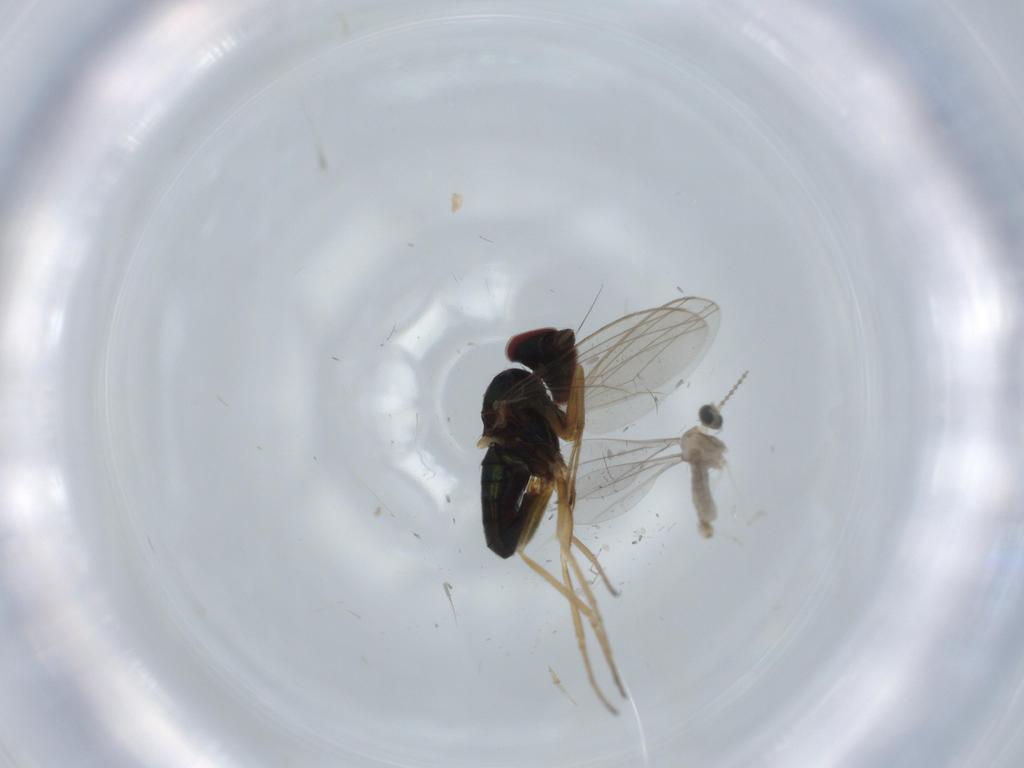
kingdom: Animalia
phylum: Arthropoda
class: Insecta
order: Diptera
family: Cecidomyiidae
